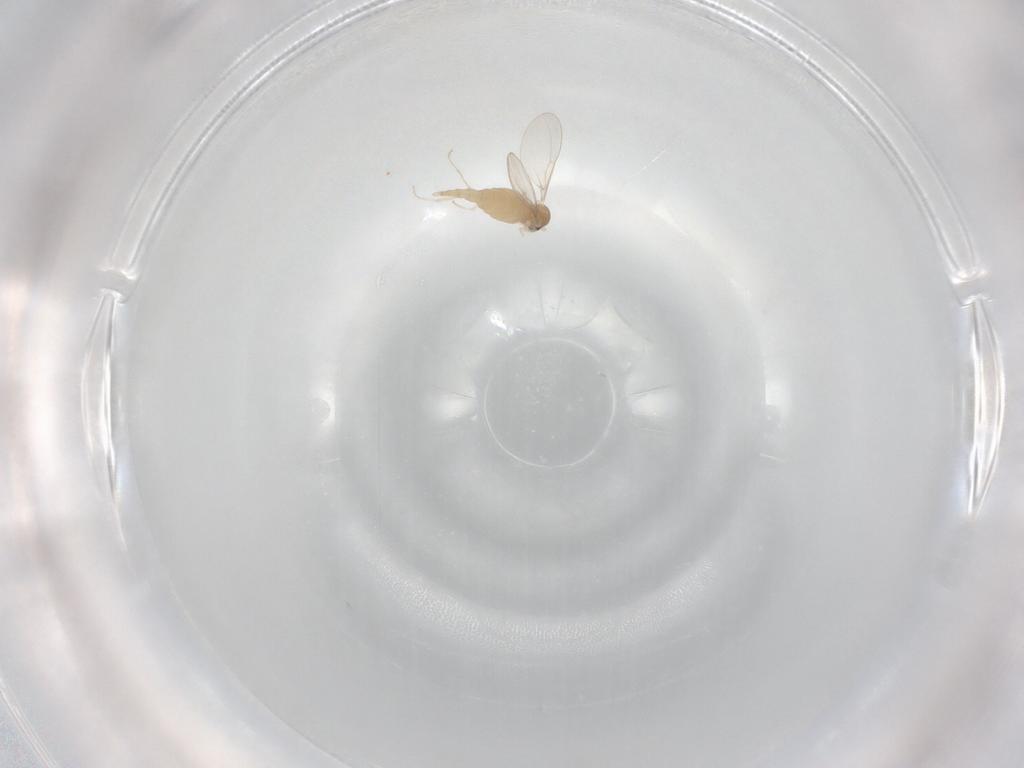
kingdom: Animalia
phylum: Arthropoda
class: Insecta
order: Diptera
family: Cecidomyiidae
